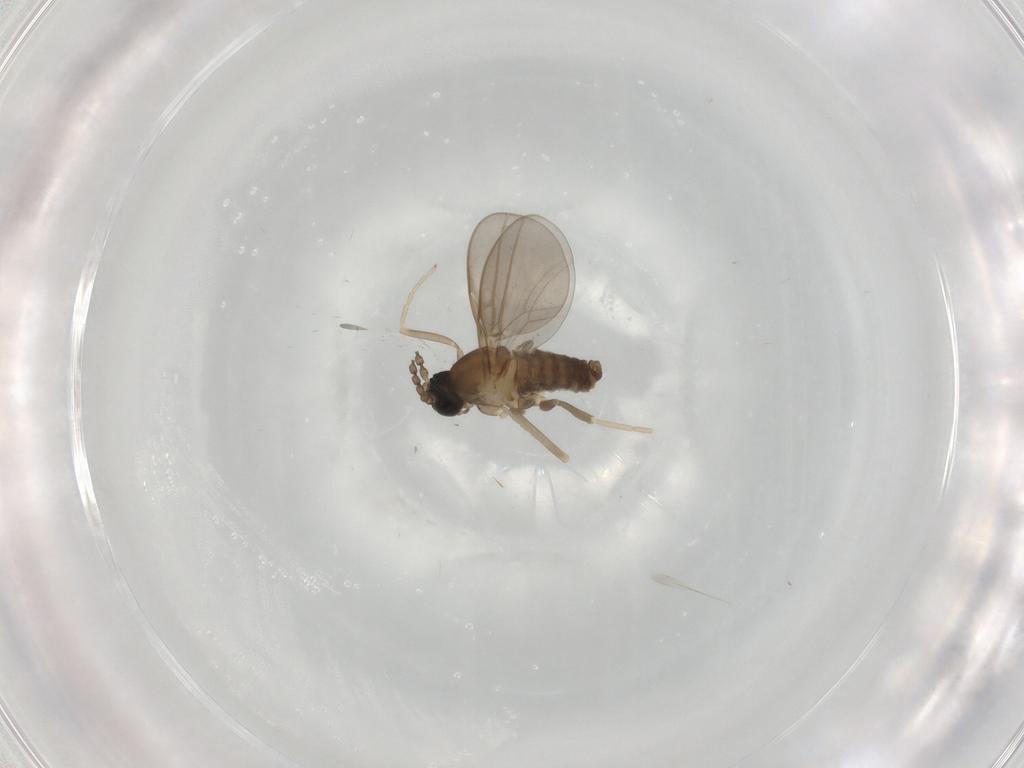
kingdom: Animalia
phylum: Arthropoda
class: Insecta
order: Diptera
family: Cecidomyiidae
